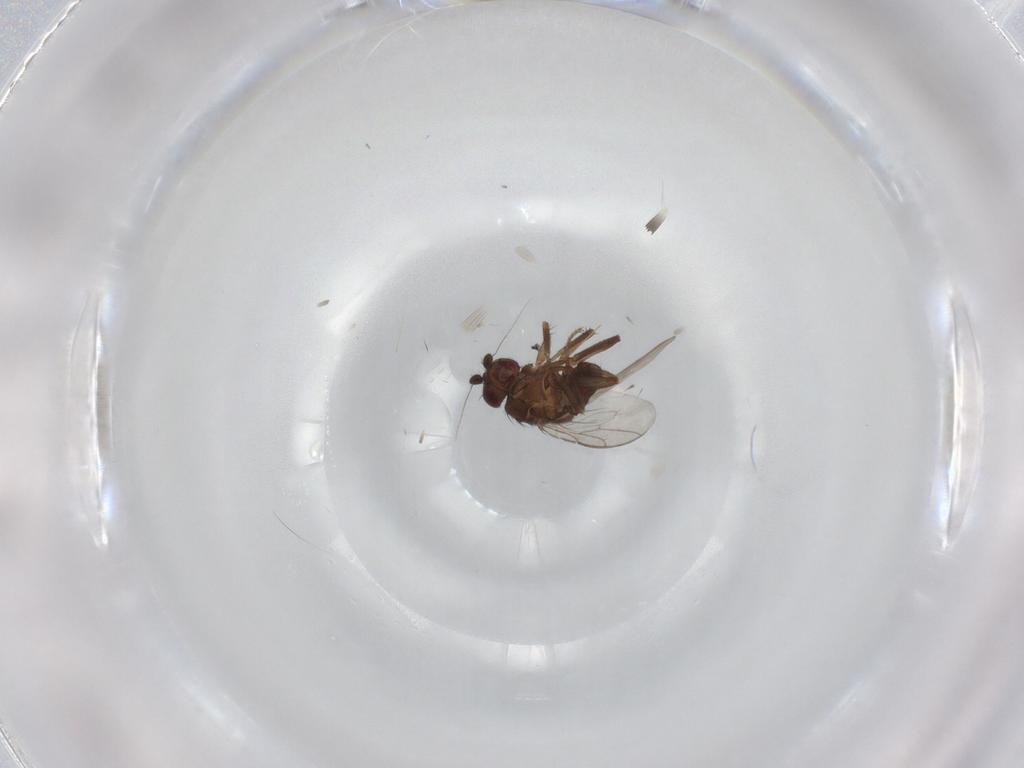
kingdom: Animalia
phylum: Arthropoda
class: Insecta
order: Diptera
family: Sphaeroceridae
